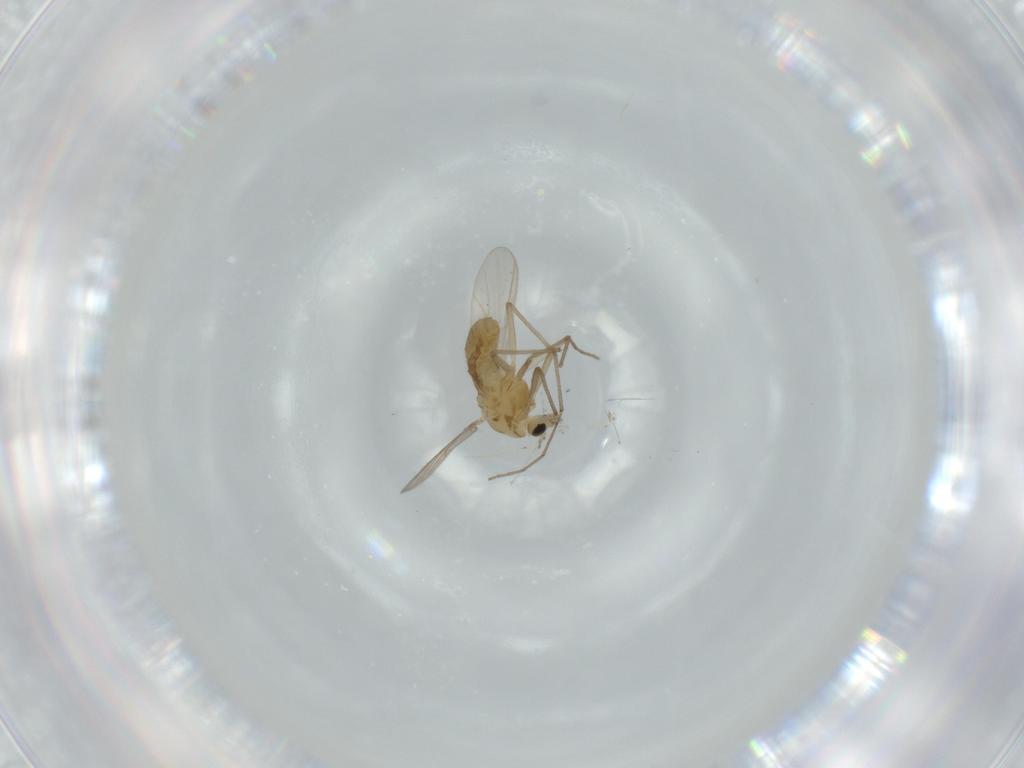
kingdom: Animalia
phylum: Arthropoda
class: Insecta
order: Diptera
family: Chironomidae
